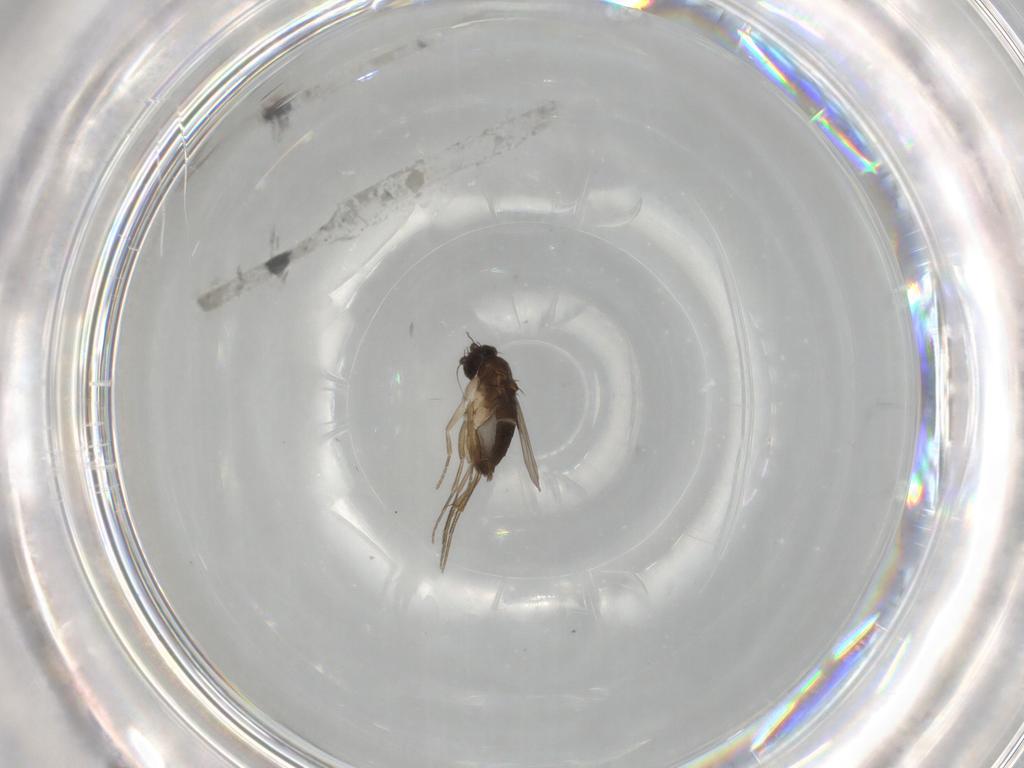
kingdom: Animalia
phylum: Arthropoda
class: Insecta
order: Diptera
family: Phoridae
